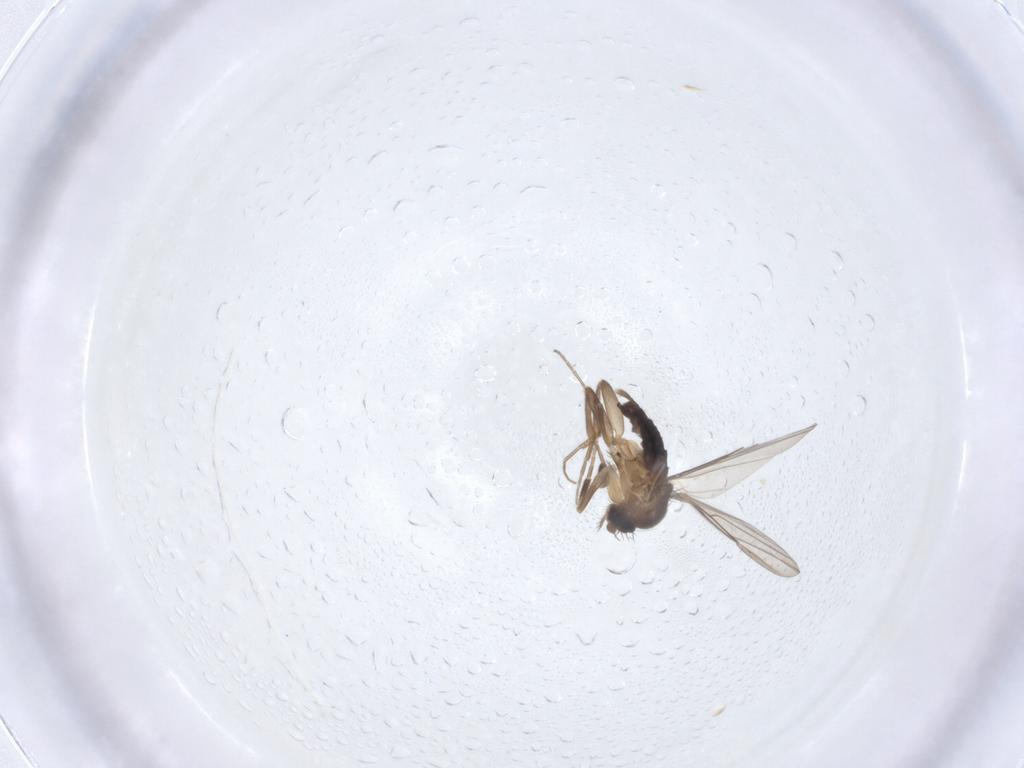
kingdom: Animalia
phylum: Arthropoda
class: Insecta
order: Diptera
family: Phoridae
